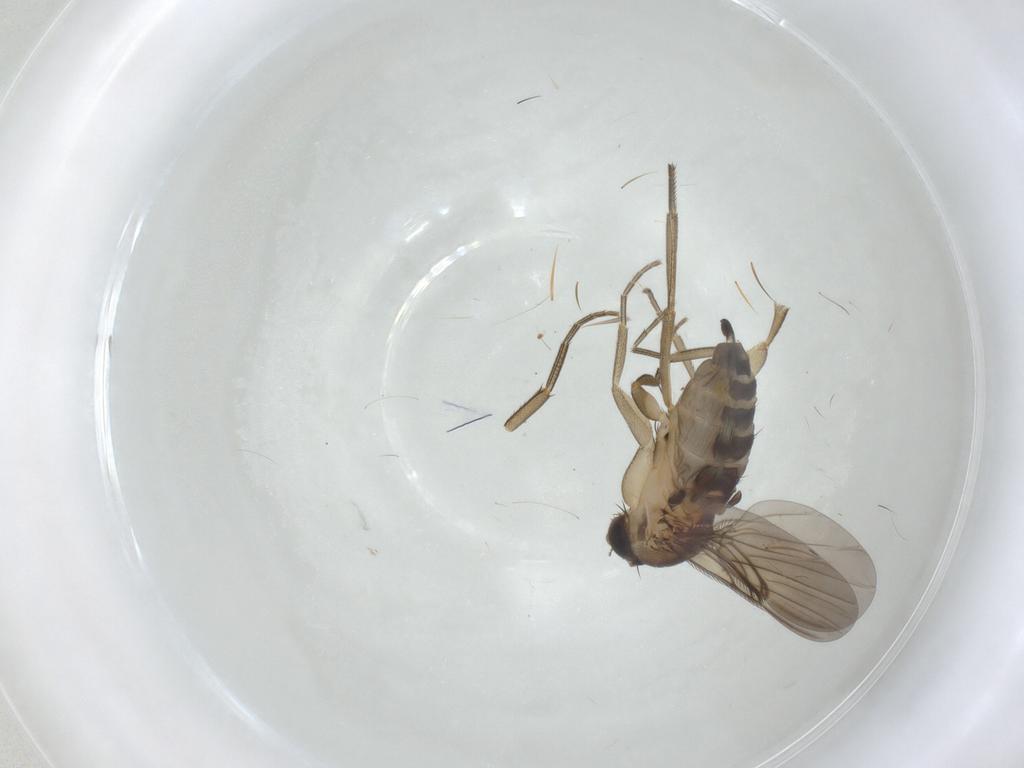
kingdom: Animalia
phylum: Arthropoda
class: Insecta
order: Diptera
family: Phoridae
